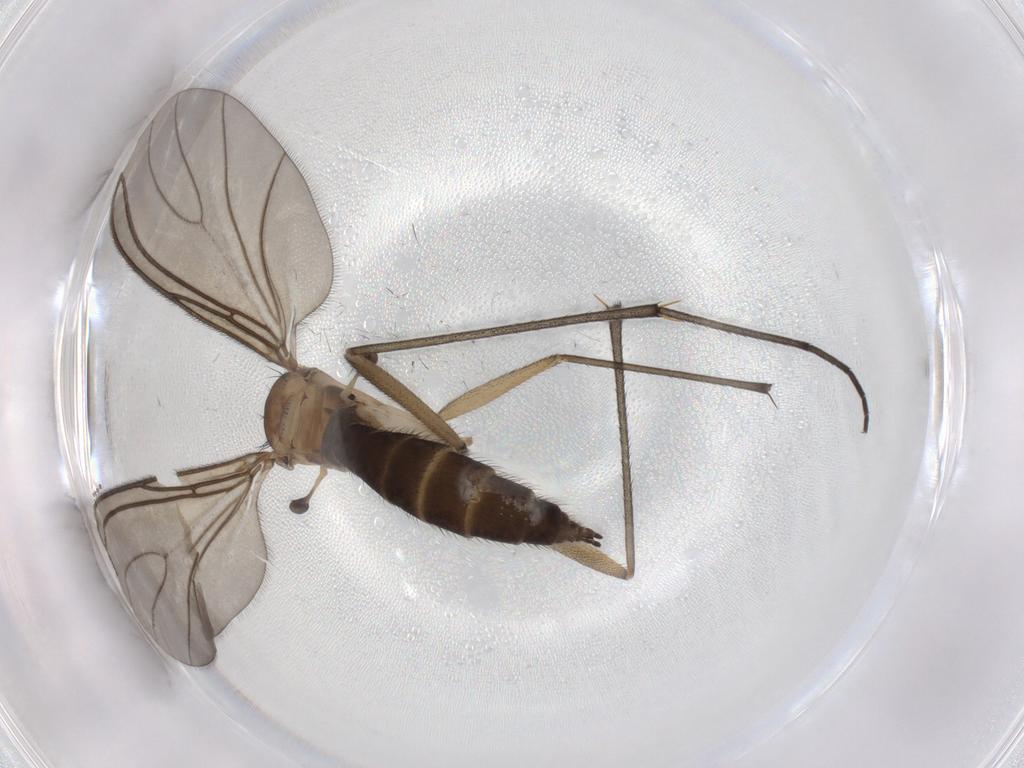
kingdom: Animalia
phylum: Arthropoda
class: Insecta
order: Diptera
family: Sciaridae
